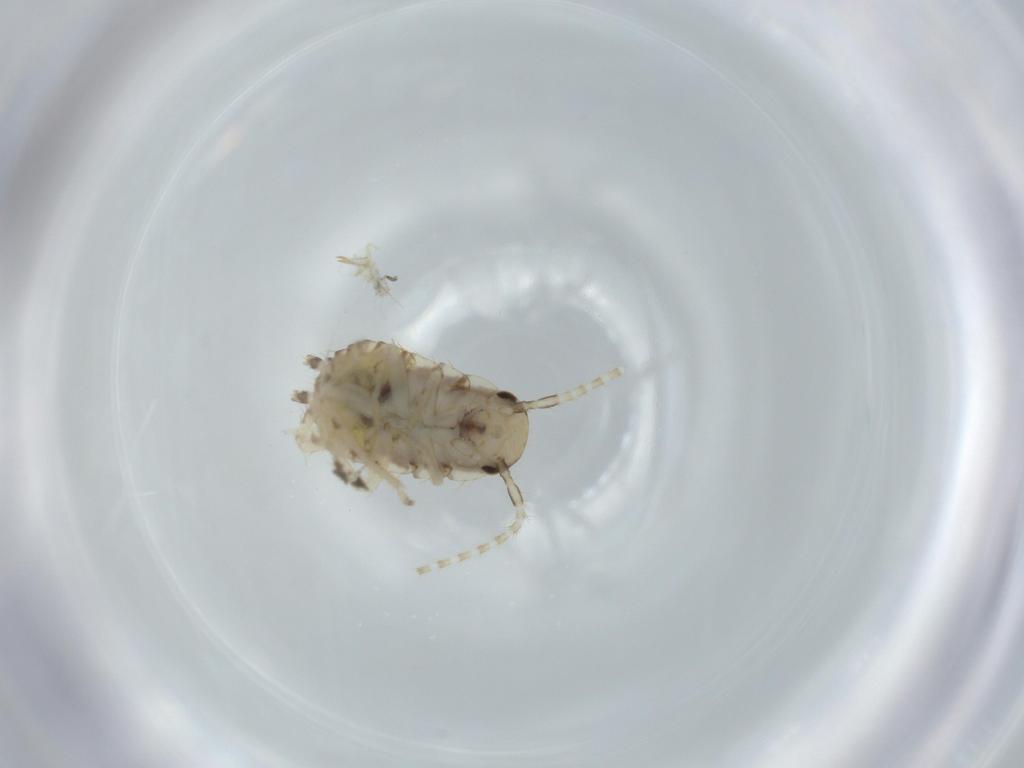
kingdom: Animalia
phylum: Arthropoda
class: Insecta
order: Blattodea
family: Ectobiidae
